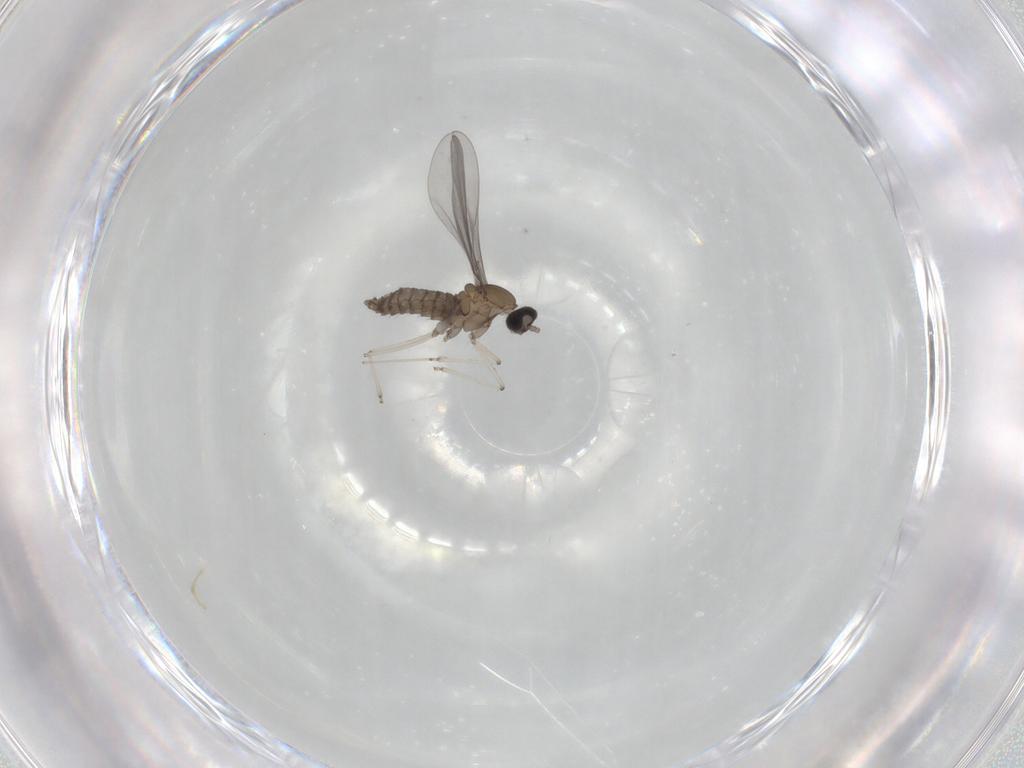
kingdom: Animalia
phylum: Arthropoda
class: Insecta
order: Diptera
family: Cecidomyiidae
